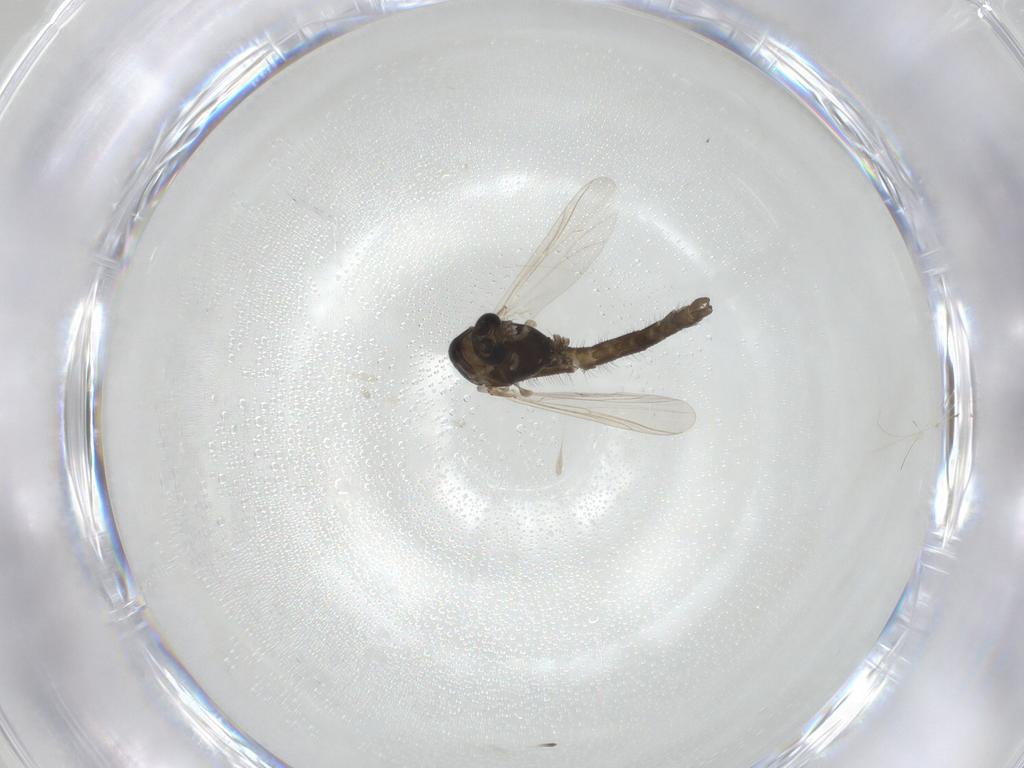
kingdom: Animalia
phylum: Arthropoda
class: Insecta
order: Diptera
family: Chironomidae
